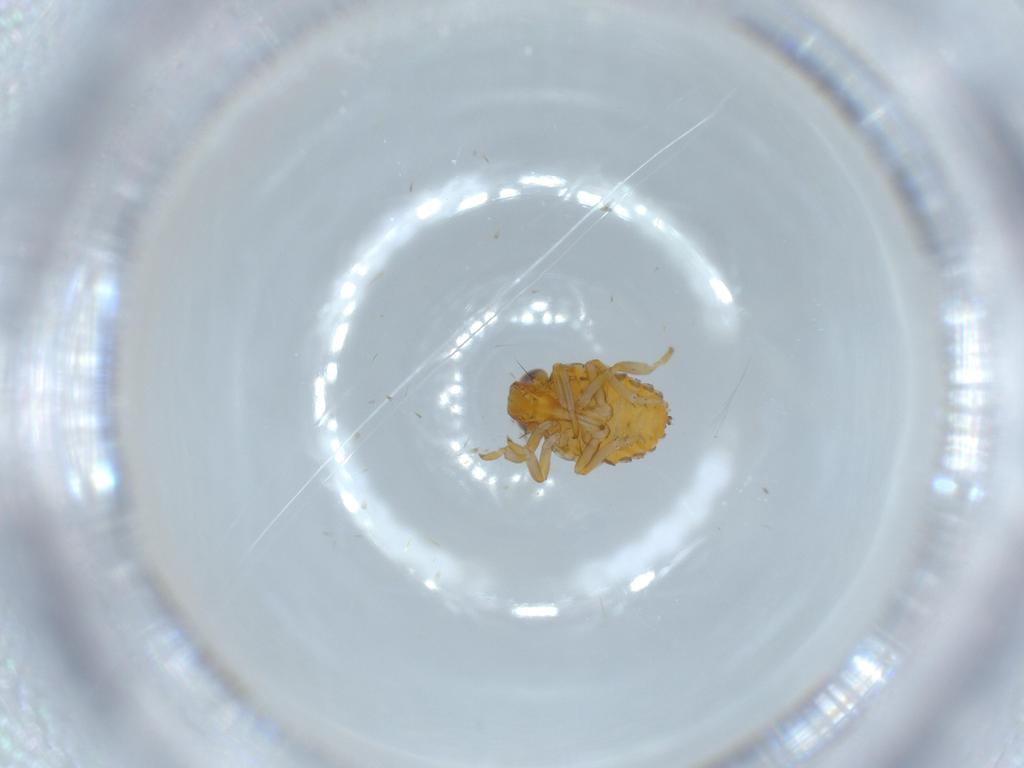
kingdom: Animalia
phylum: Arthropoda
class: Insecta
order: Hemiptera
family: Issidae
